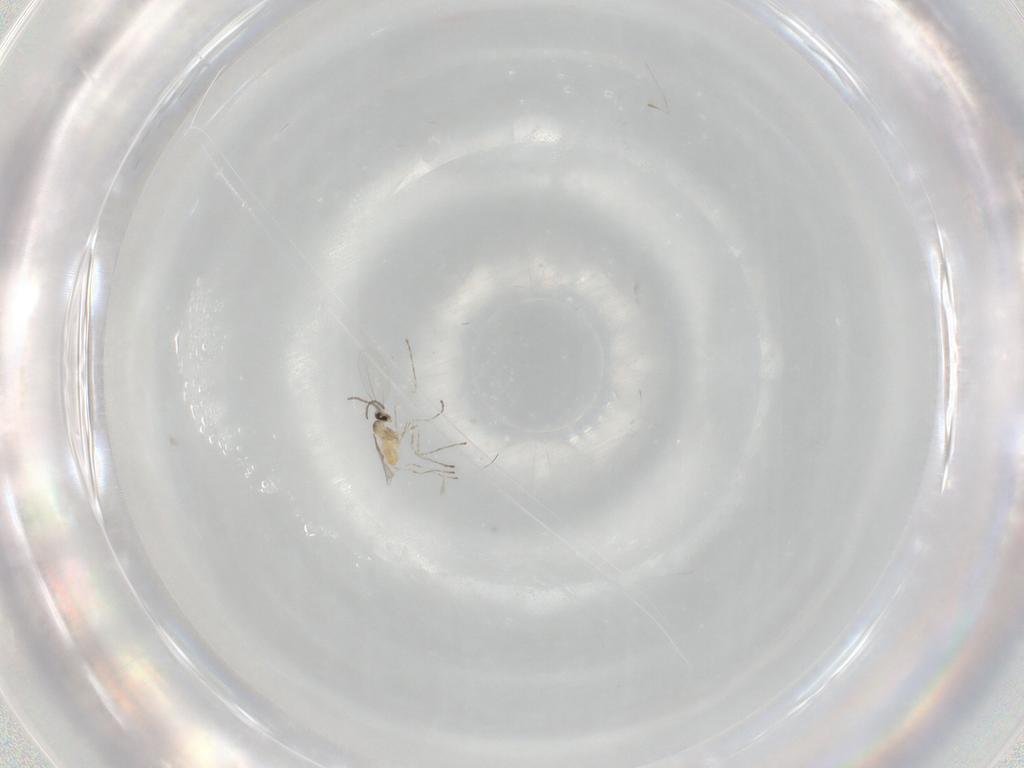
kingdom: Animalia
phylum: Arthropoda
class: Insecta
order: Diptera
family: Cecidomyiidae
